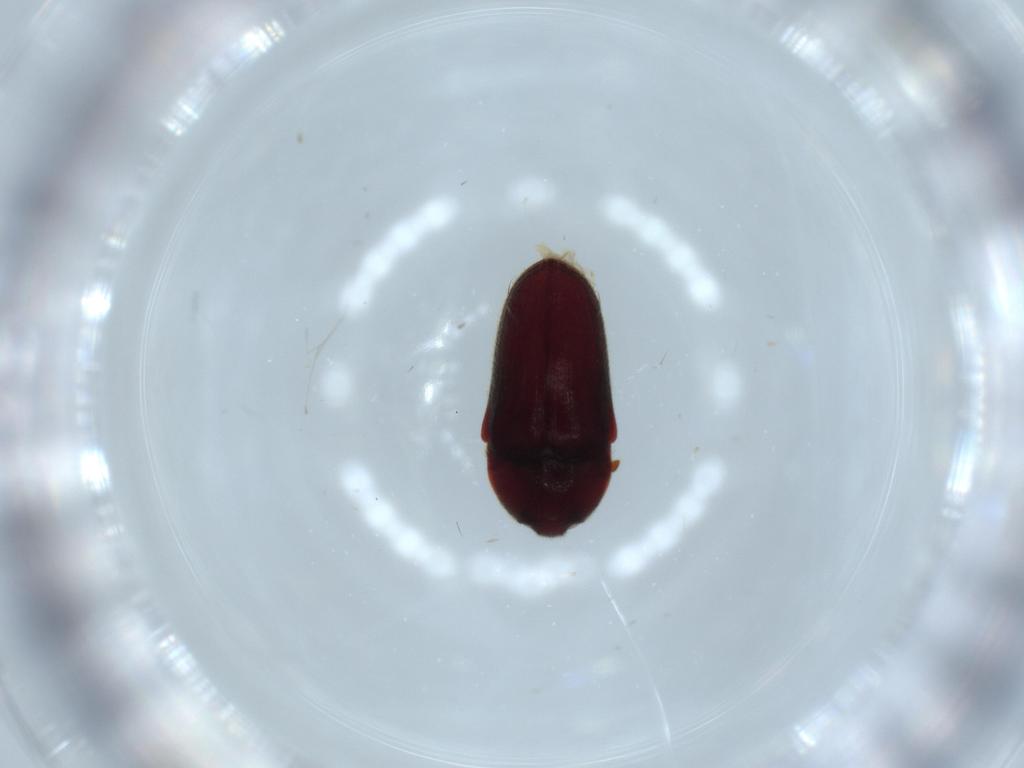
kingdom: Animalia
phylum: Arthropoda
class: Insecta
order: Coleoptera
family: Throscidae
